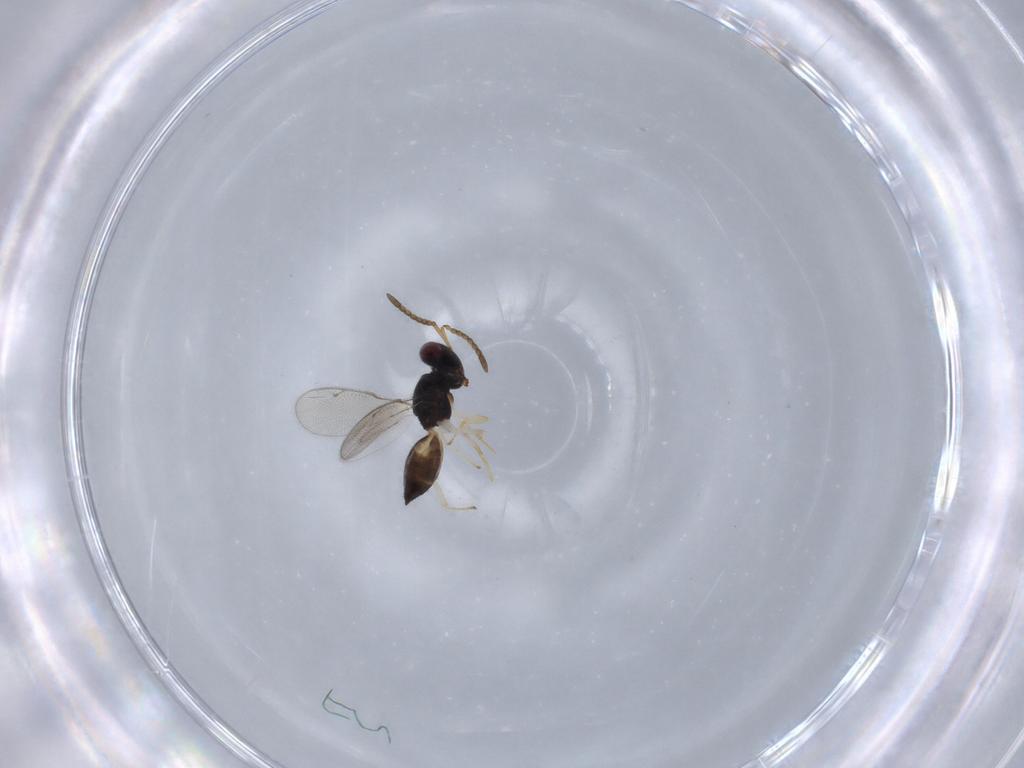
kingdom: Animalia
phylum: Arthropoda
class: Insecta
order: Hymenoptera
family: Pteromalidae
